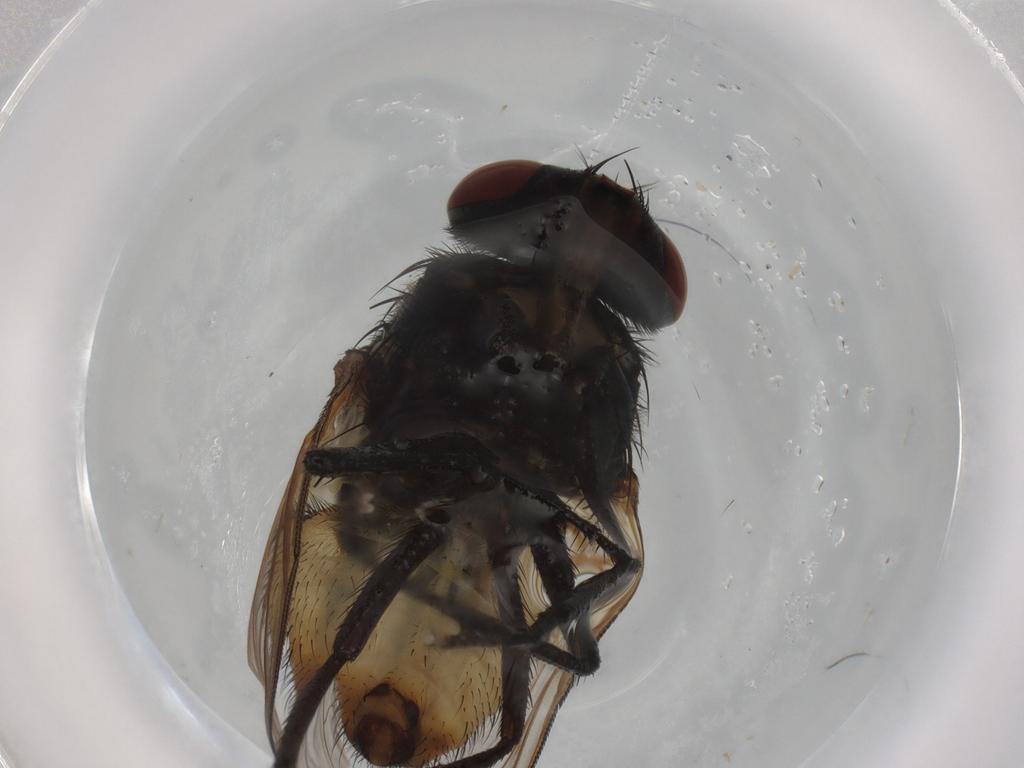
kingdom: Animalia
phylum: Arthropoda
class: Insecta
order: Diptera
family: Muscidae
